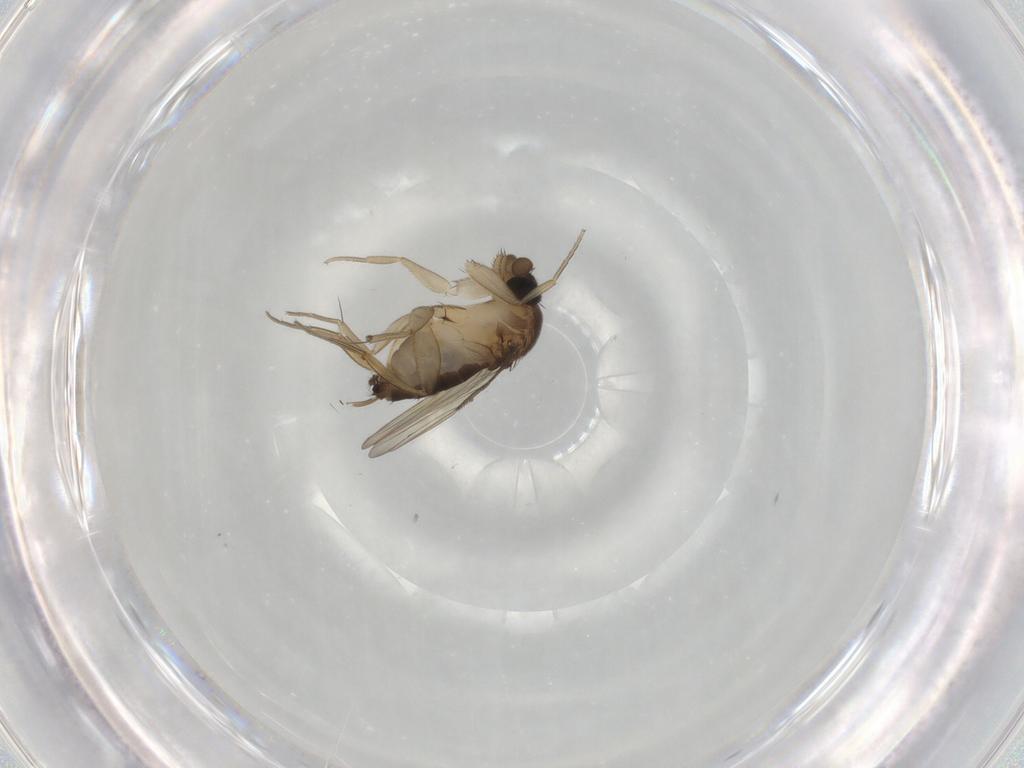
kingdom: Animalia
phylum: Arthropoda
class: Insecta
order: Diptera
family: Phoridae
